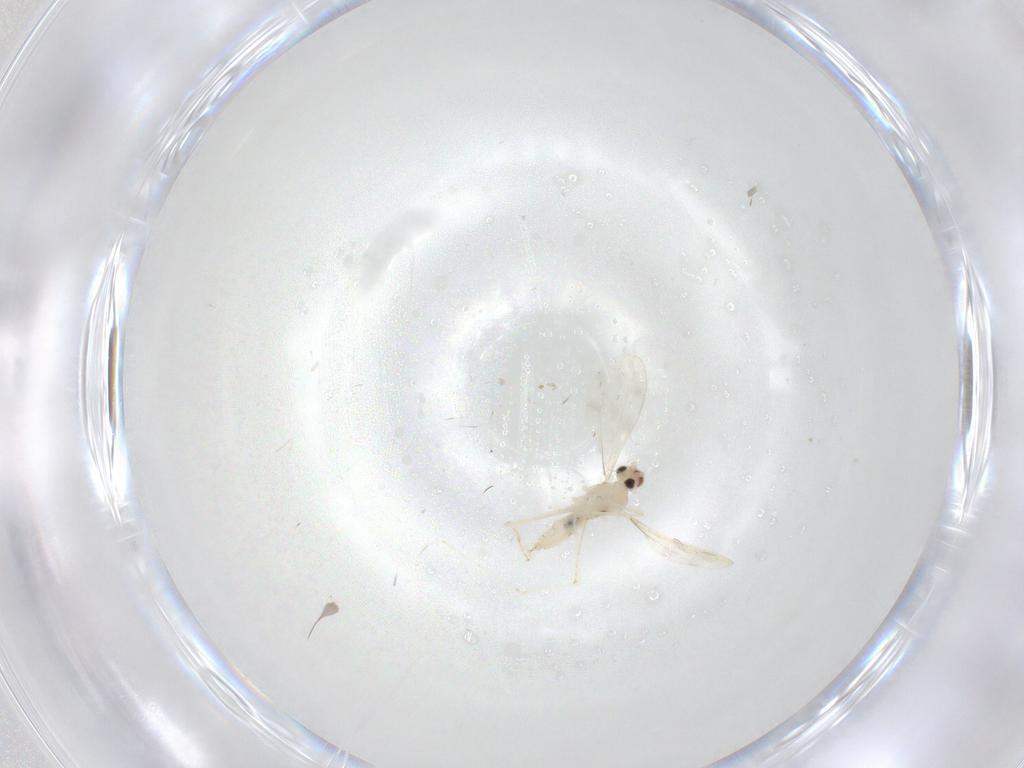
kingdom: Animalia
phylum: Arthropoda
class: Insecta
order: Diptera
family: Cecidomyiidae
